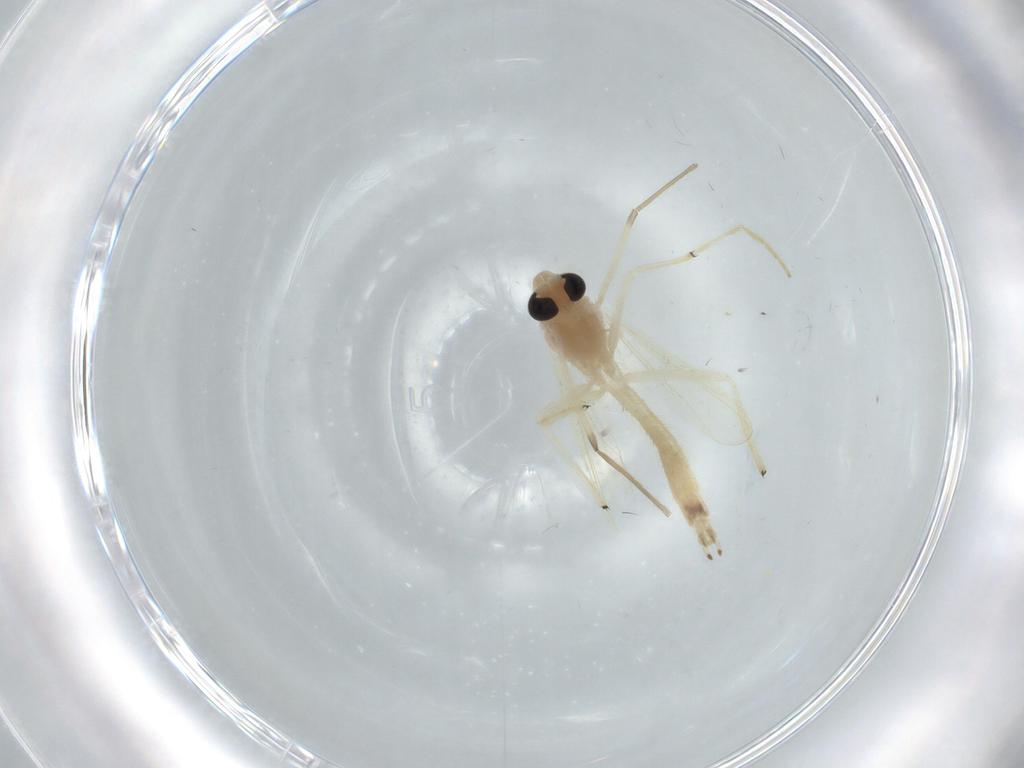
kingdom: Animalia
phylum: Arthropoda
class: Insecta
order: Diptera
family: Chironomidae
